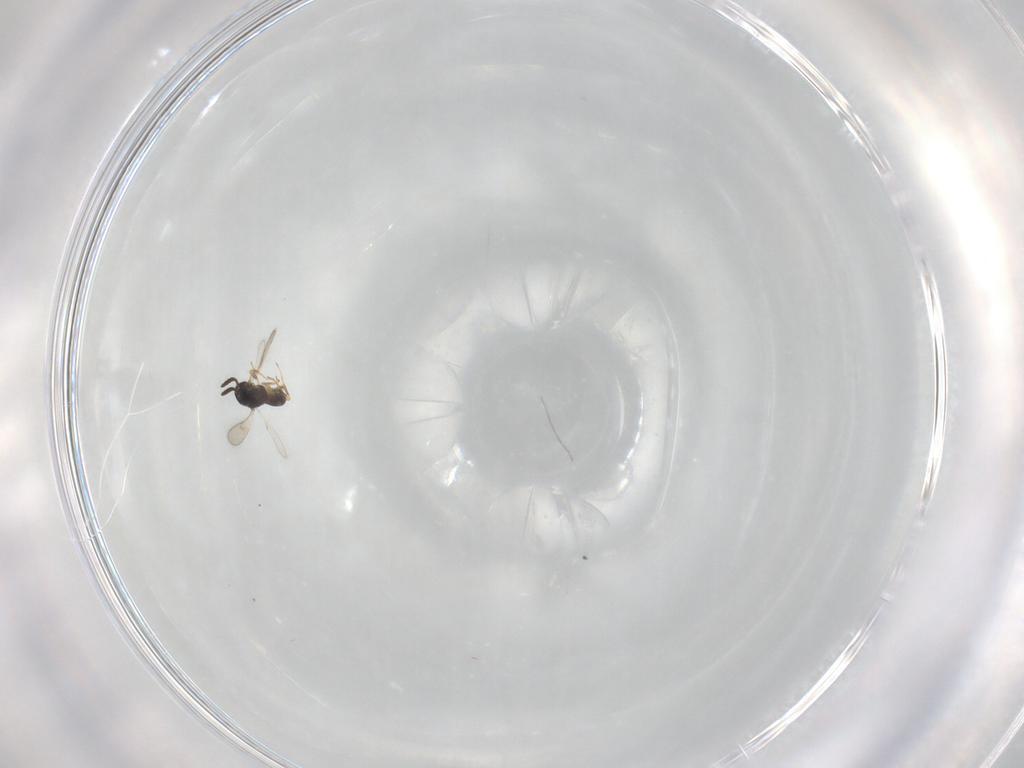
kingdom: Animalia
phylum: Arthropoda
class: Insecta
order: Hymenoptera
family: Scelionidae
